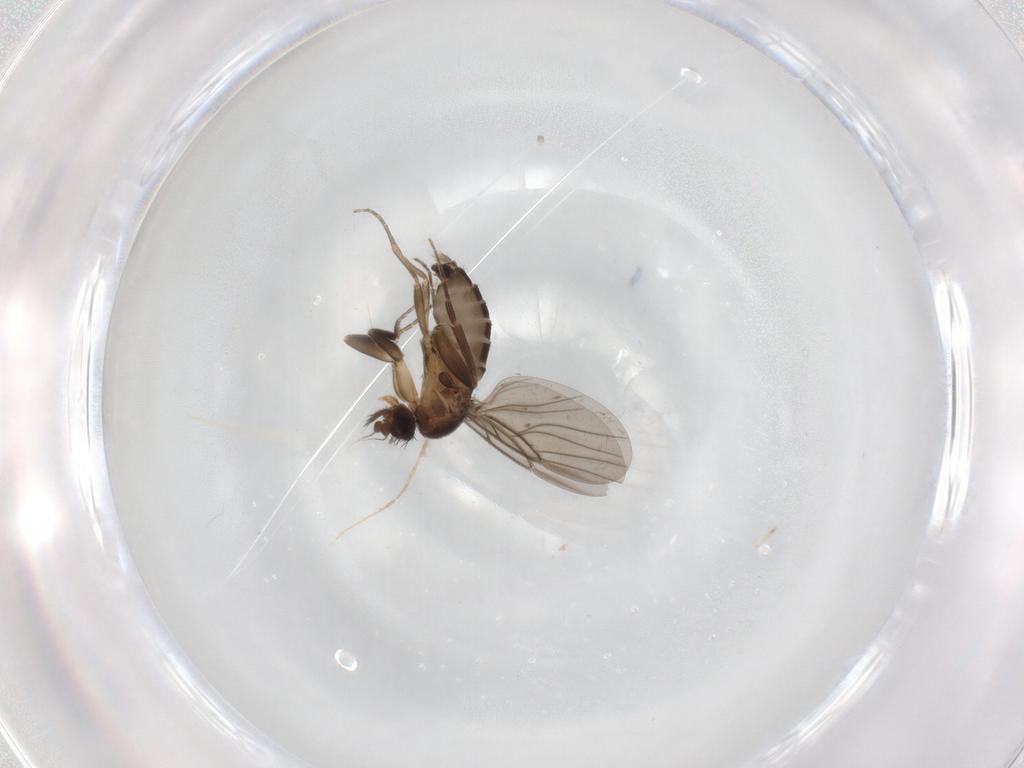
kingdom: Animalia
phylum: Arthropoda
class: Insecta
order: Diptera
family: Phoridae
